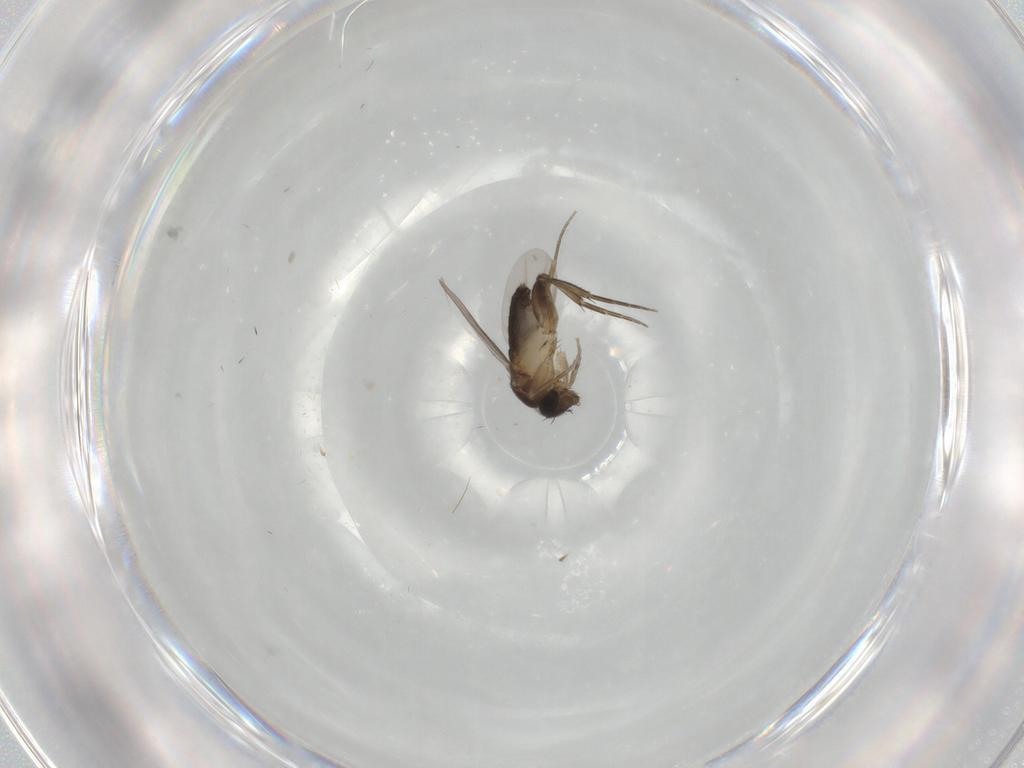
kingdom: Animalia
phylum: Arthropoda
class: Insecta
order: Diptera
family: Phoridae
